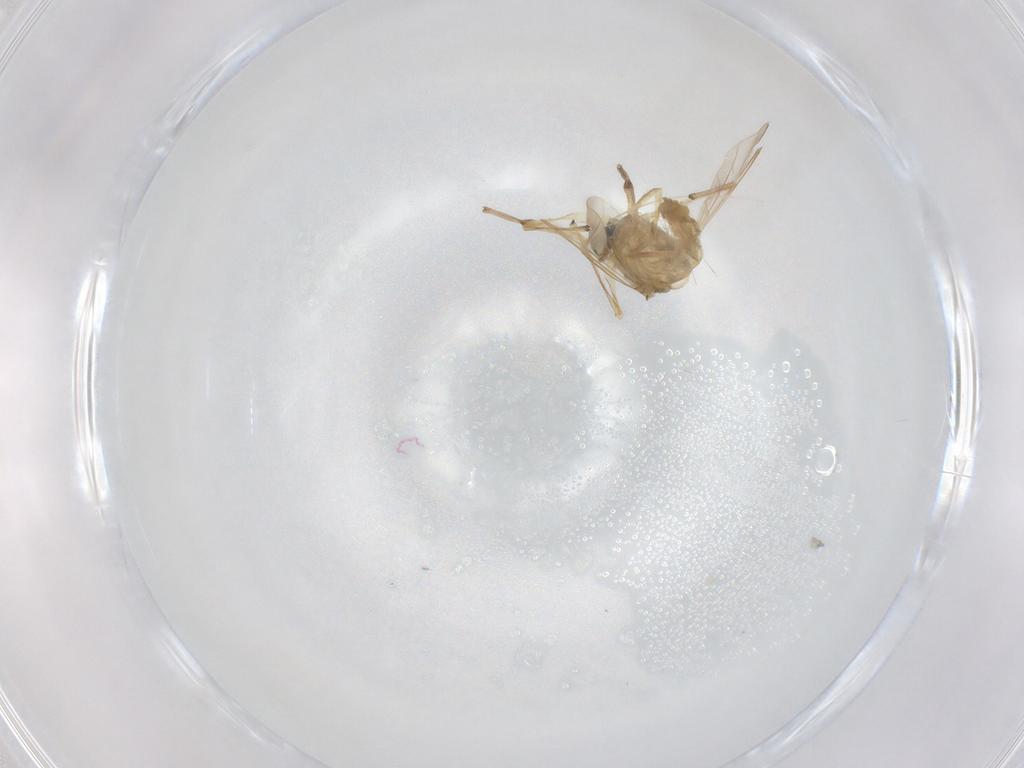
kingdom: Animalia
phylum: Arthropoda
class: Insecta
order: Diptera
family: Chironomidae
